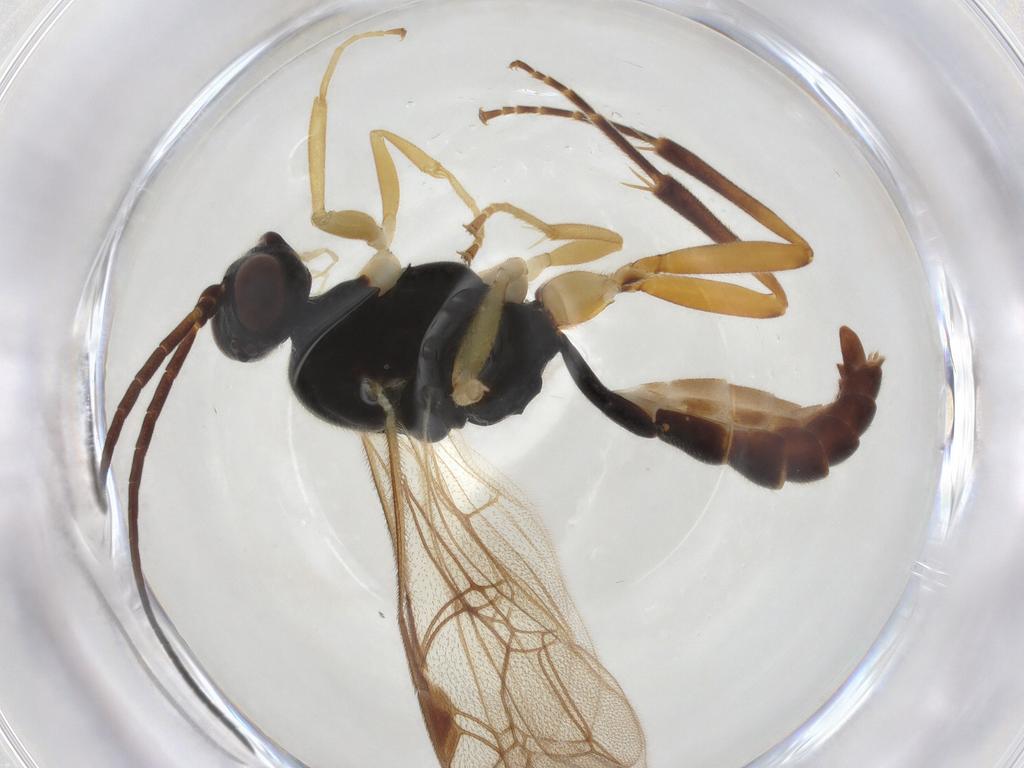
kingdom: Animalia
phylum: Arthropoda
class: Insecta
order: Hymenoptera
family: Ichneumonidae
